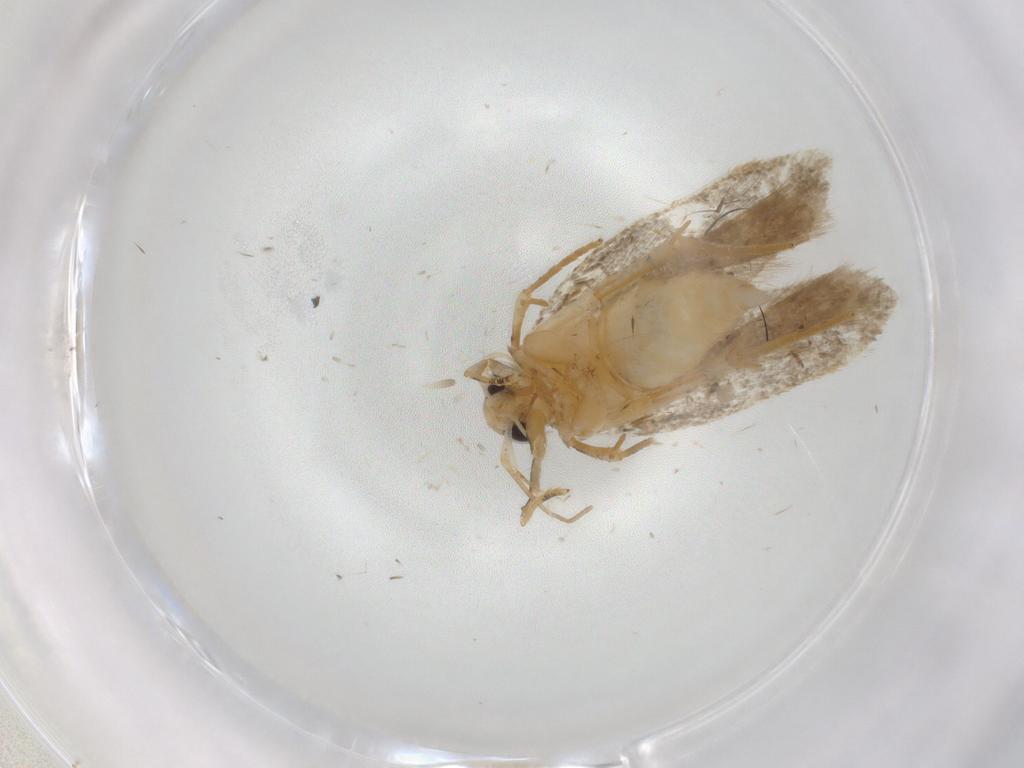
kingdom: Animalia
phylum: Arthropoda
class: Insecta
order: Lepidoptera
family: Autostichidae
